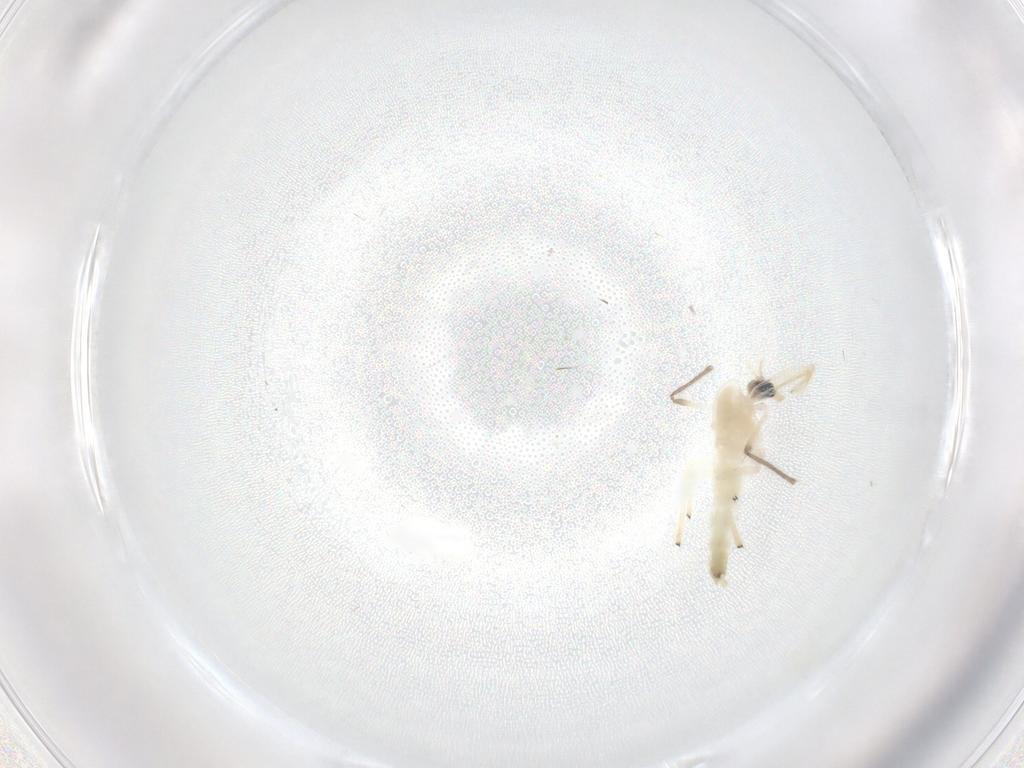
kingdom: Animalia
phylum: Arthropoda
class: Insecta
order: Diptera
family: Chironomidae
